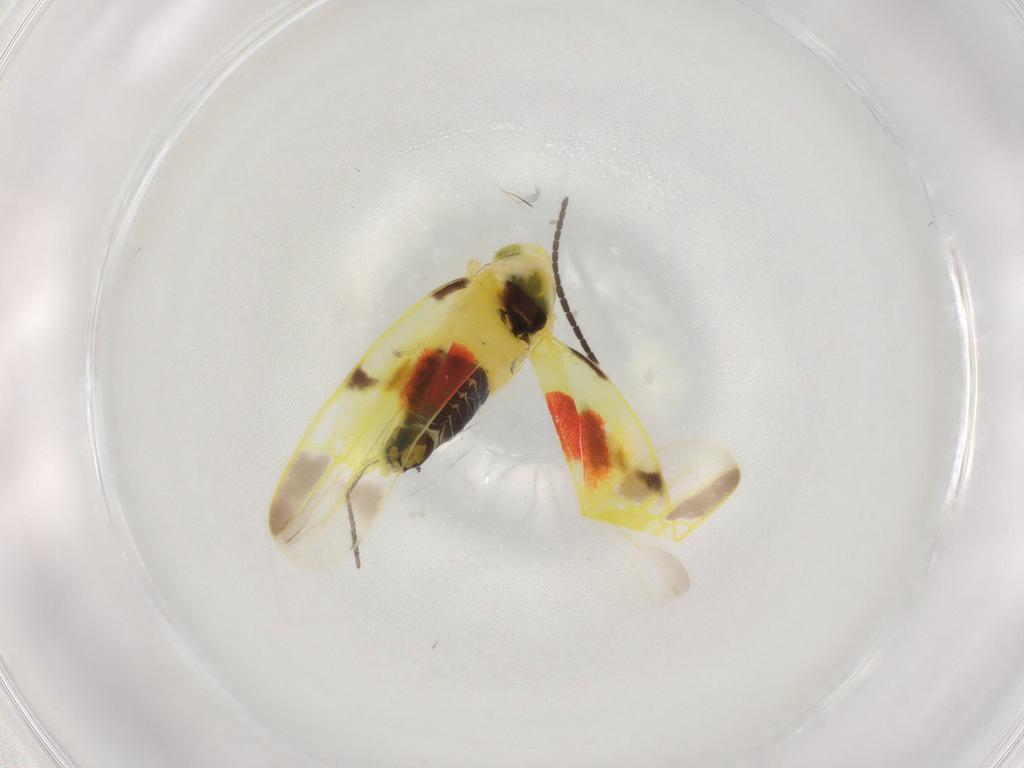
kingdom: Animalia
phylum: Arthropoda
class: Insecta
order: Hemiptera
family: Cicadellidae
